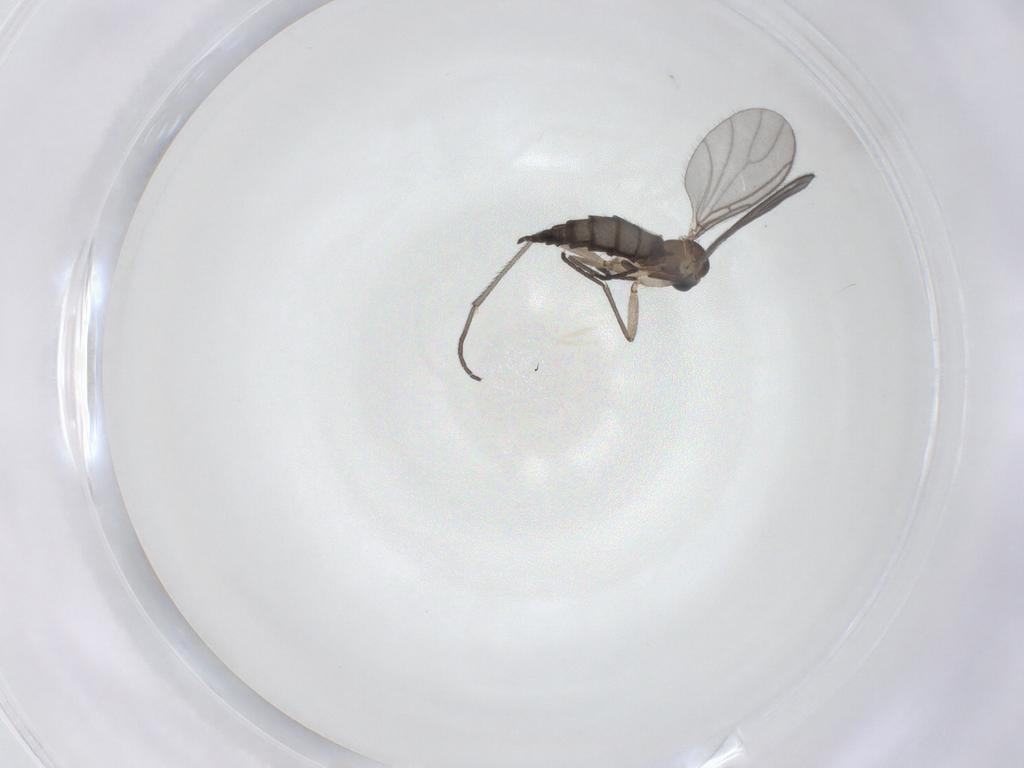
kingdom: Animalia
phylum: Arthropoda
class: Insecta
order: Diptera
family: Sciaridae
